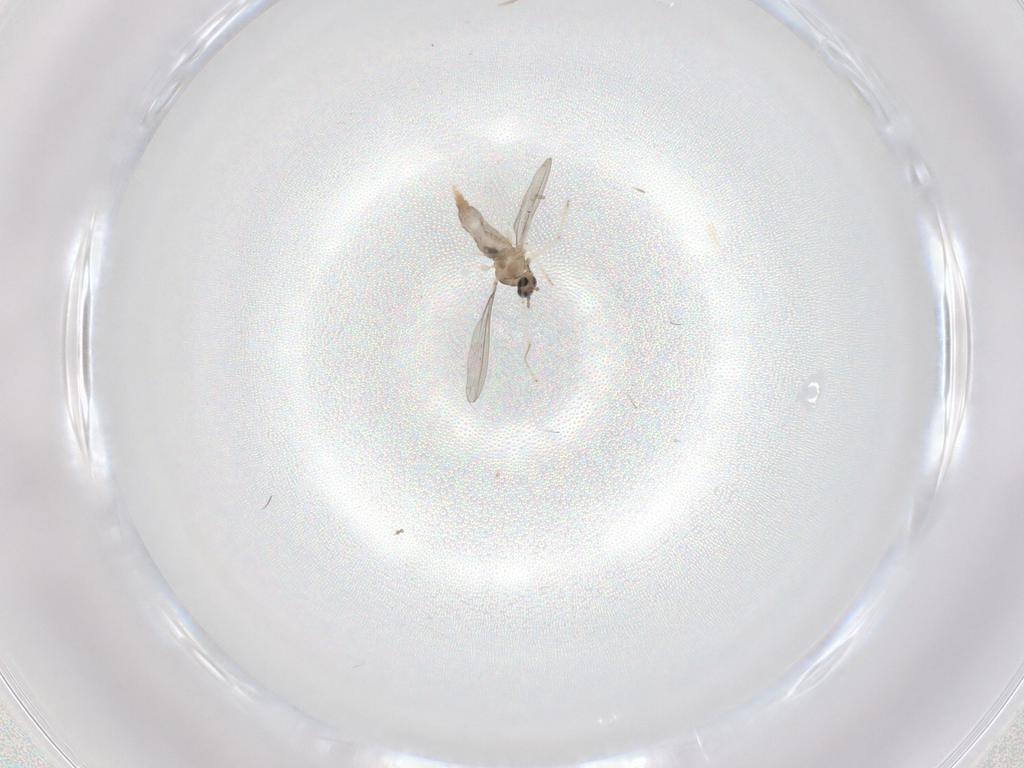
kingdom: Animalia
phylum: Arthropoda
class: Insecta
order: Diptera
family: Cecidomyiidae
